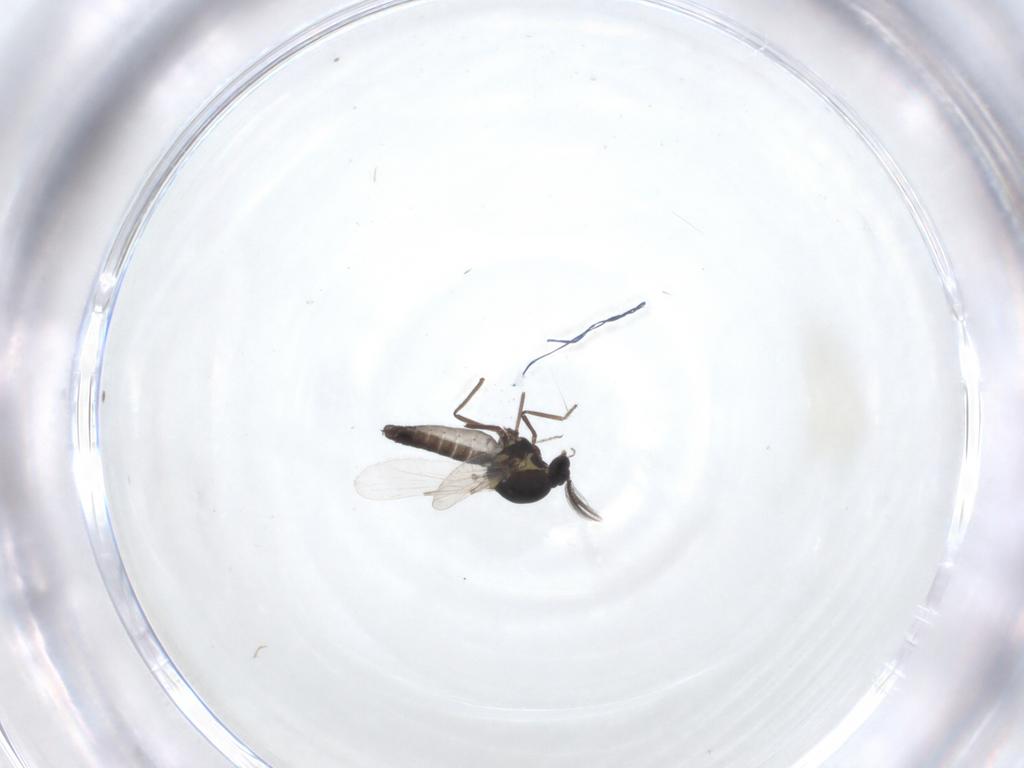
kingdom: Animalia
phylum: Arthropoda
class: Insecta
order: Diptera
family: Ceratopogonidae
